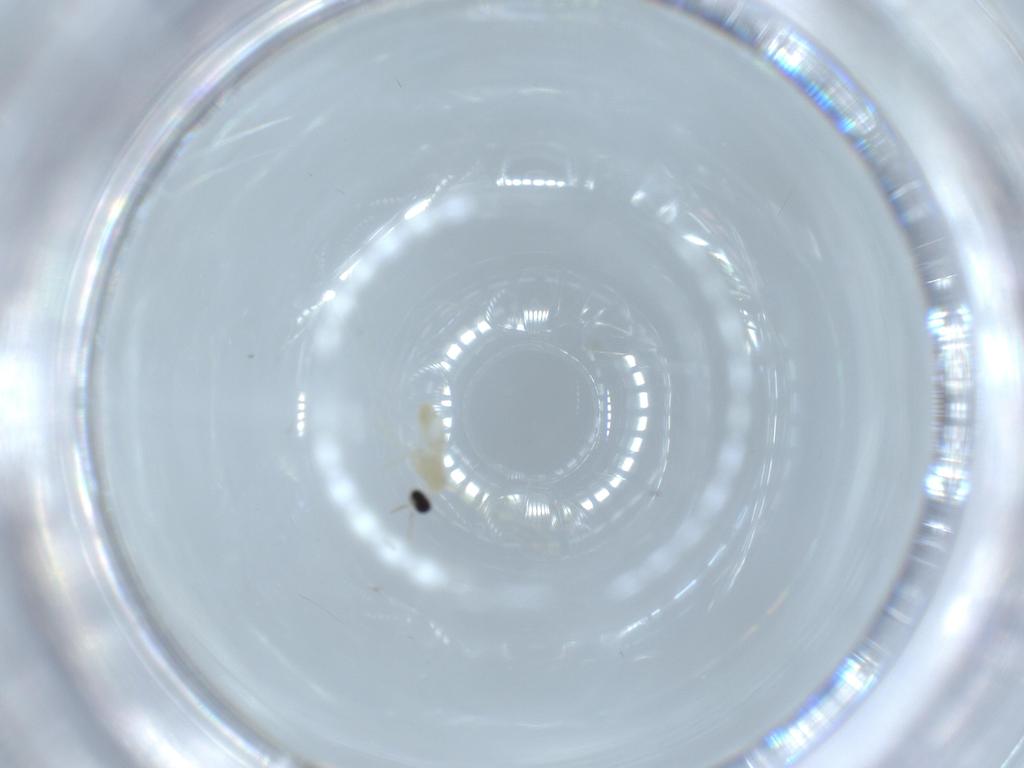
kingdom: Animalia
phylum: Arthropoda
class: Insecta
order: Diptera
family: Cecidomyiidae
